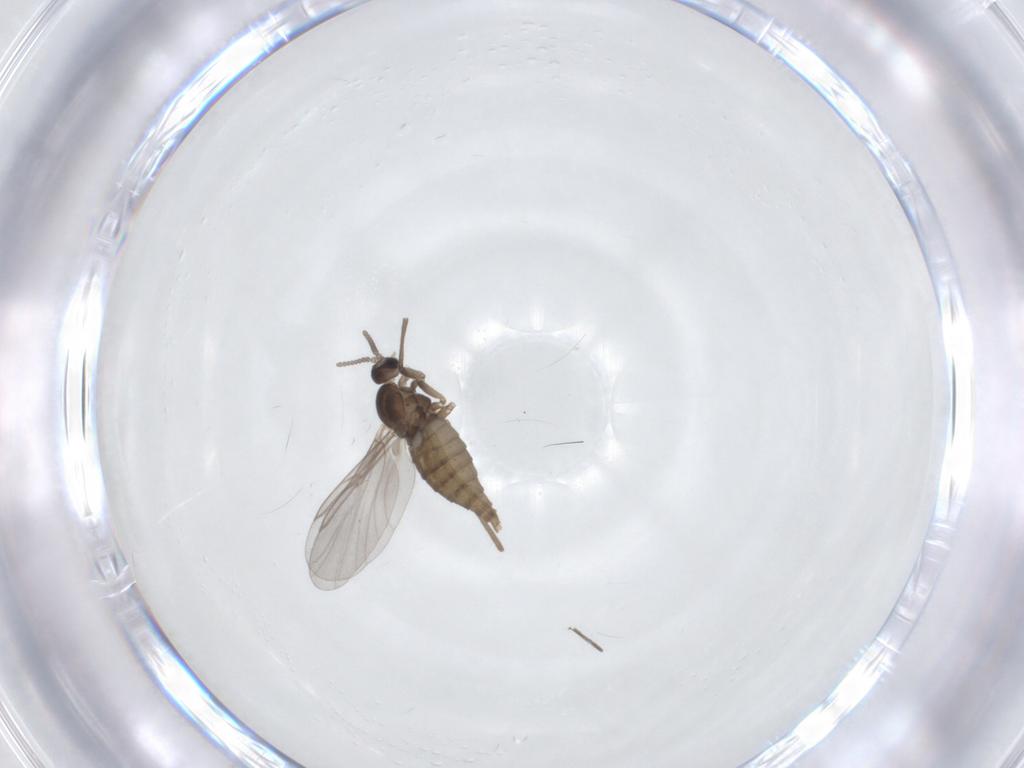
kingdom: Animalia
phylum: Arthropoda
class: Insecta
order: Diptera
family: Cecidomyiidae
